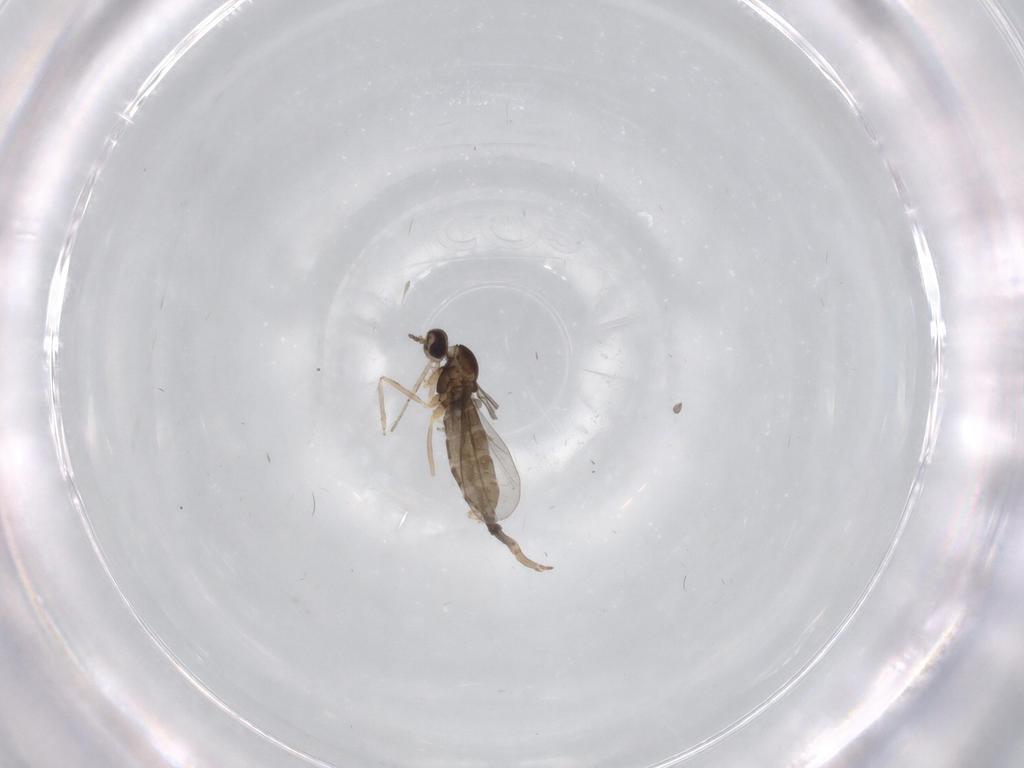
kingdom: Animalia
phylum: Arthropoda
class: Insecta
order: Diptera
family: Cecidomyiidae
